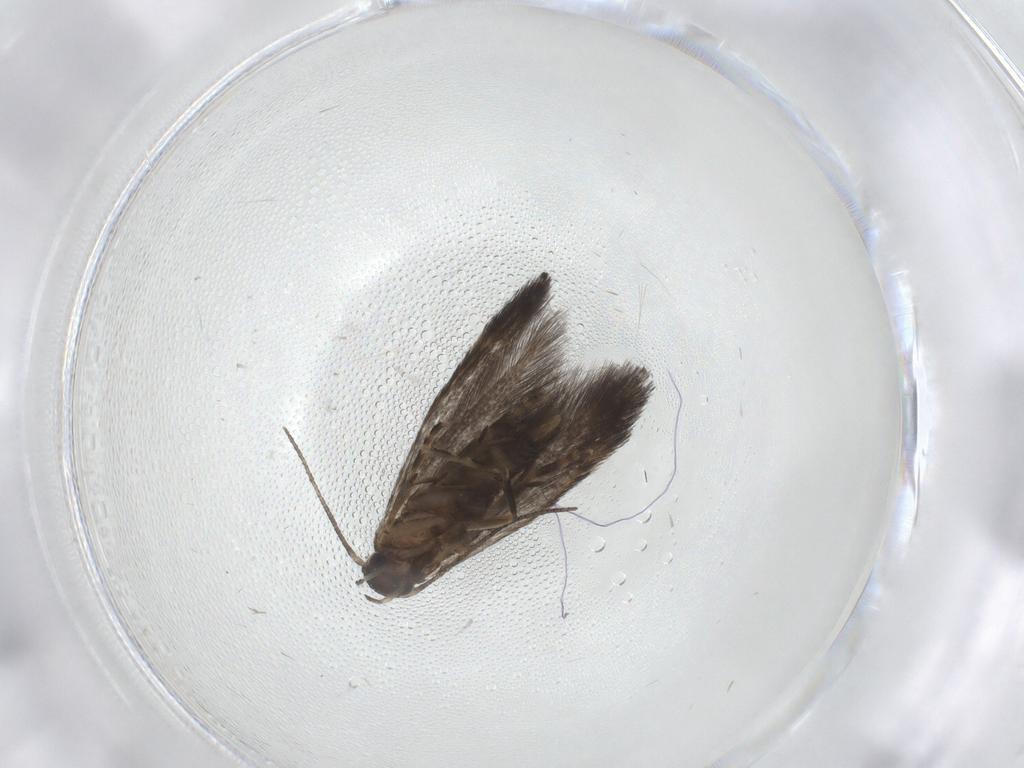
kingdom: Animalia
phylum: Arthropoda
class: Insecta
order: Lepidoptera
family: Elachistidae
